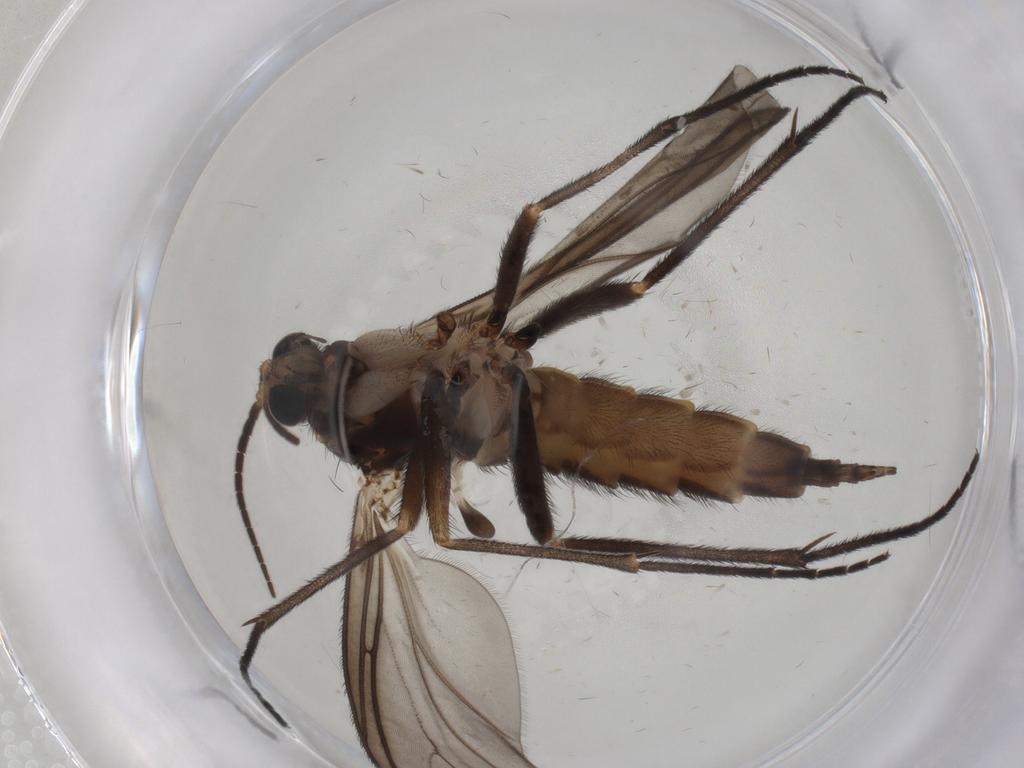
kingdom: Animalia
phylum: Arthropoda
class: Insecta
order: Diptera
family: Sciaridae
